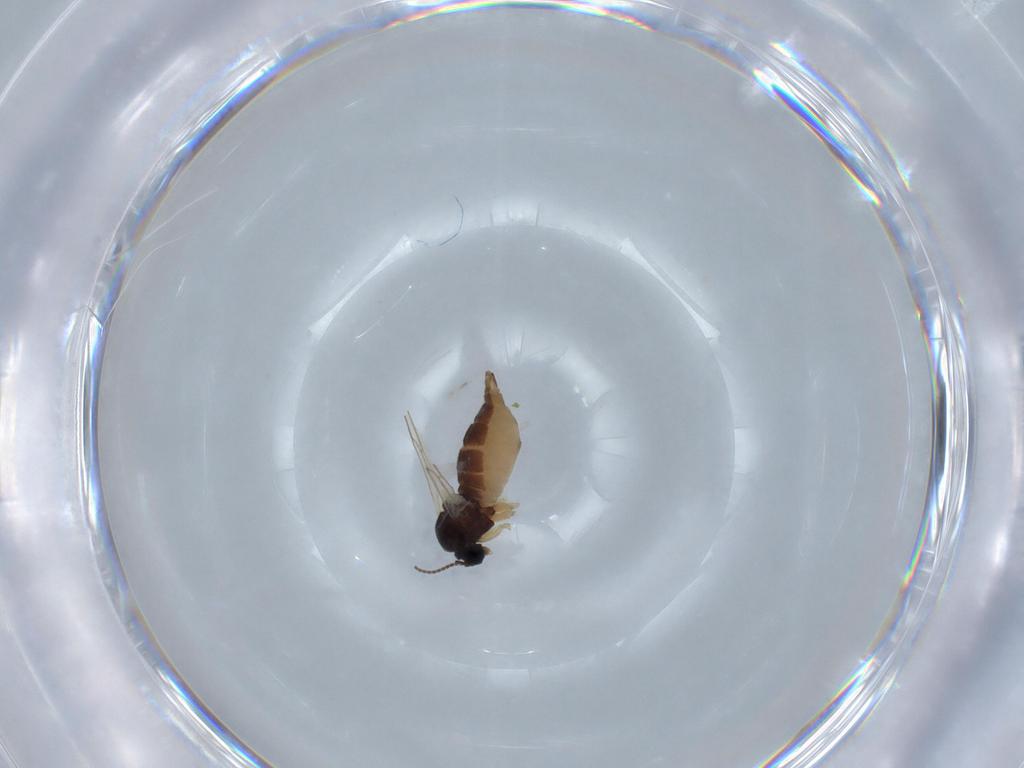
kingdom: Animalia
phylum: Arthropoda
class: Insecta
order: Diptera
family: Sciaridae
